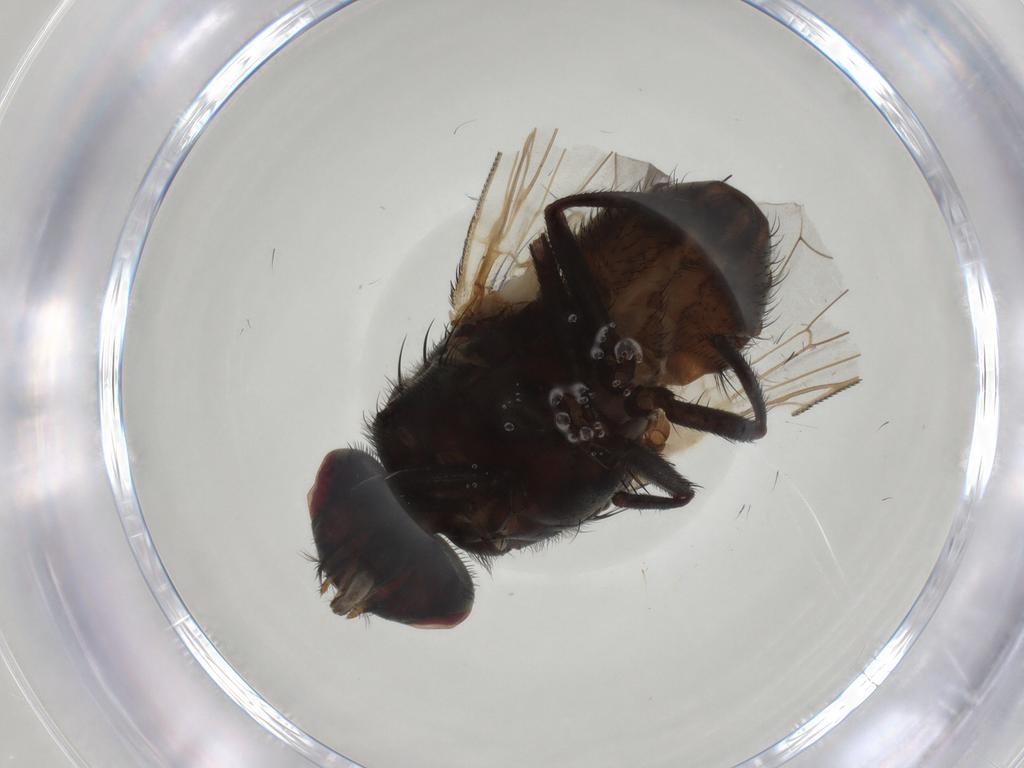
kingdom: Animalia
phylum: Arthropoda
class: Insecta
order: Diptera
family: Muscidae
